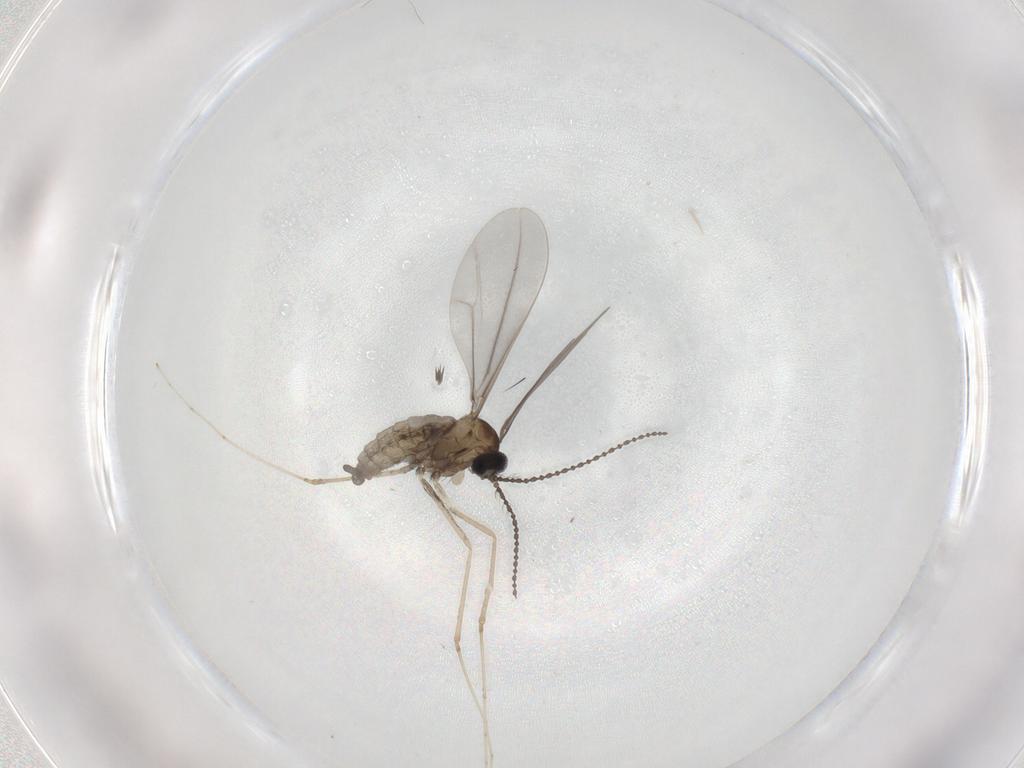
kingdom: Animalia
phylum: Arthropoda
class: Insecta
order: Diptera
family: Cecidomyiidae
